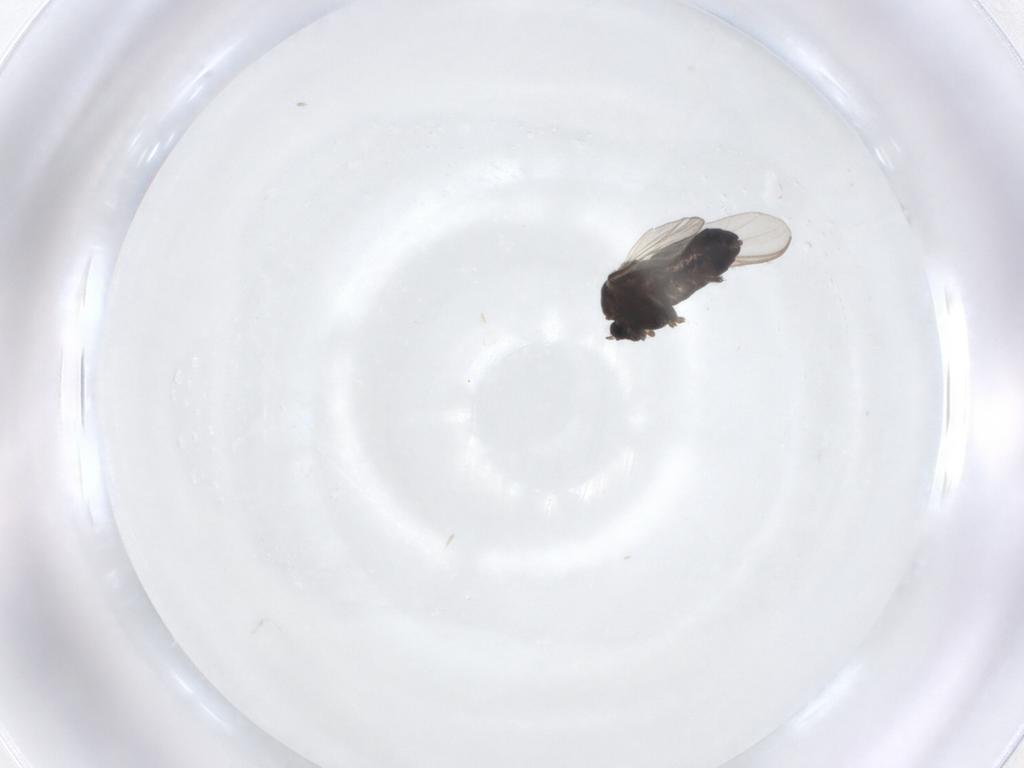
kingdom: Animalia
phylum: Arthropoda
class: Insecta
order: Diptera
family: Chironomidae
